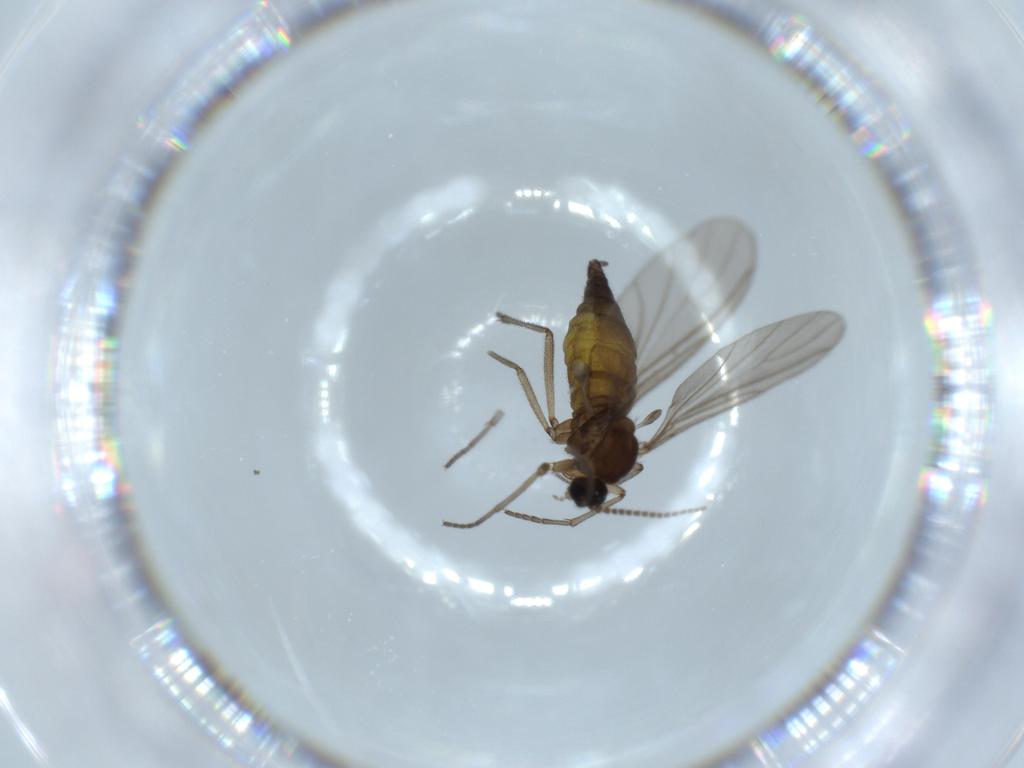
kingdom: Animalia
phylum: Arthropoda
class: Insecta
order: Diptera
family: Sciaridae
